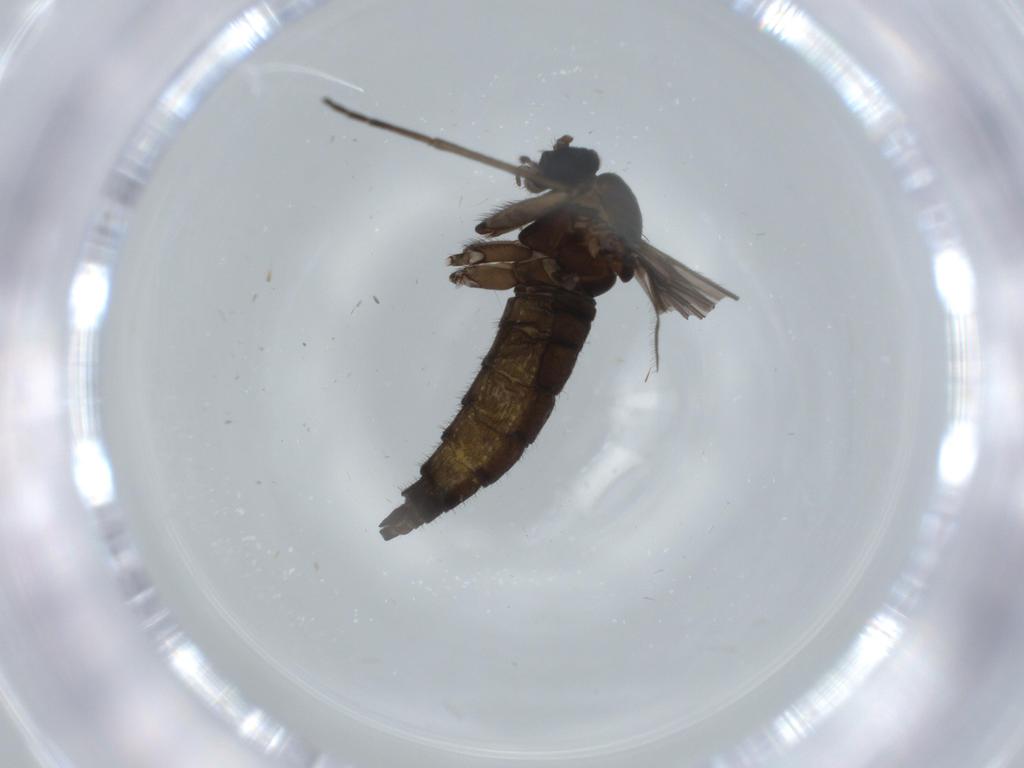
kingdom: Animalia
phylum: Arthropoda
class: Insecta
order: Diptera
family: Sciaridae
